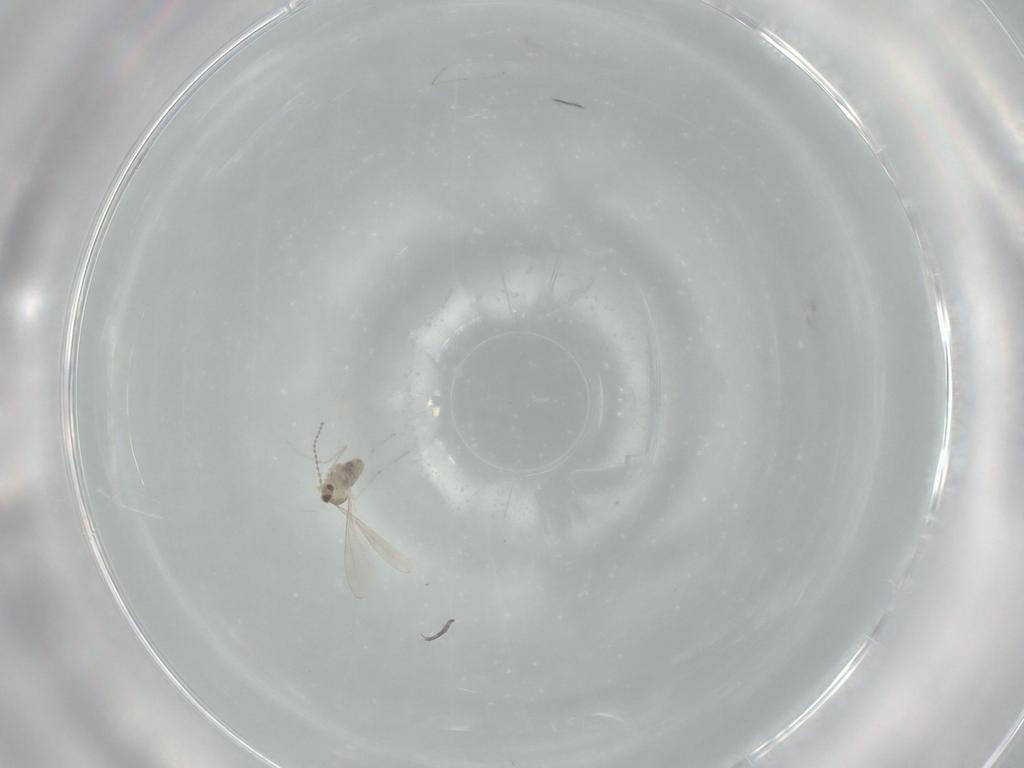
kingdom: Animalia
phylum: Arthropoda
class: Insecta
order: Diptera
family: Cecidomyiidae
